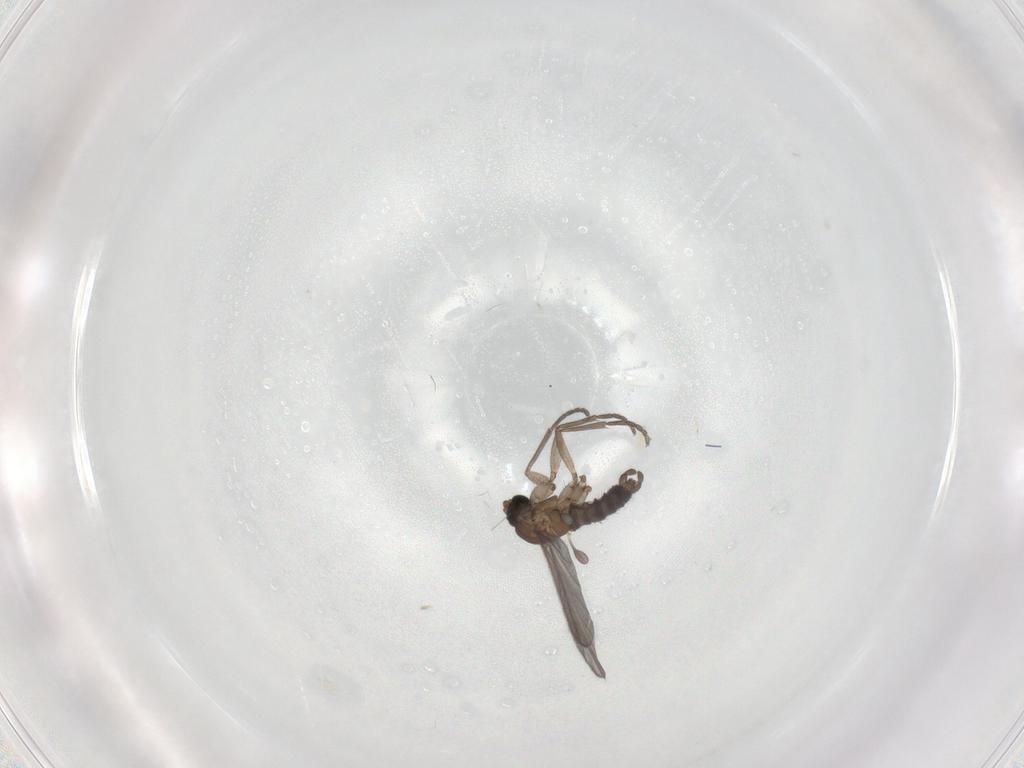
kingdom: Animalia
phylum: Arthropoda
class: Insecta
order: Diptera
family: Sciaridae
